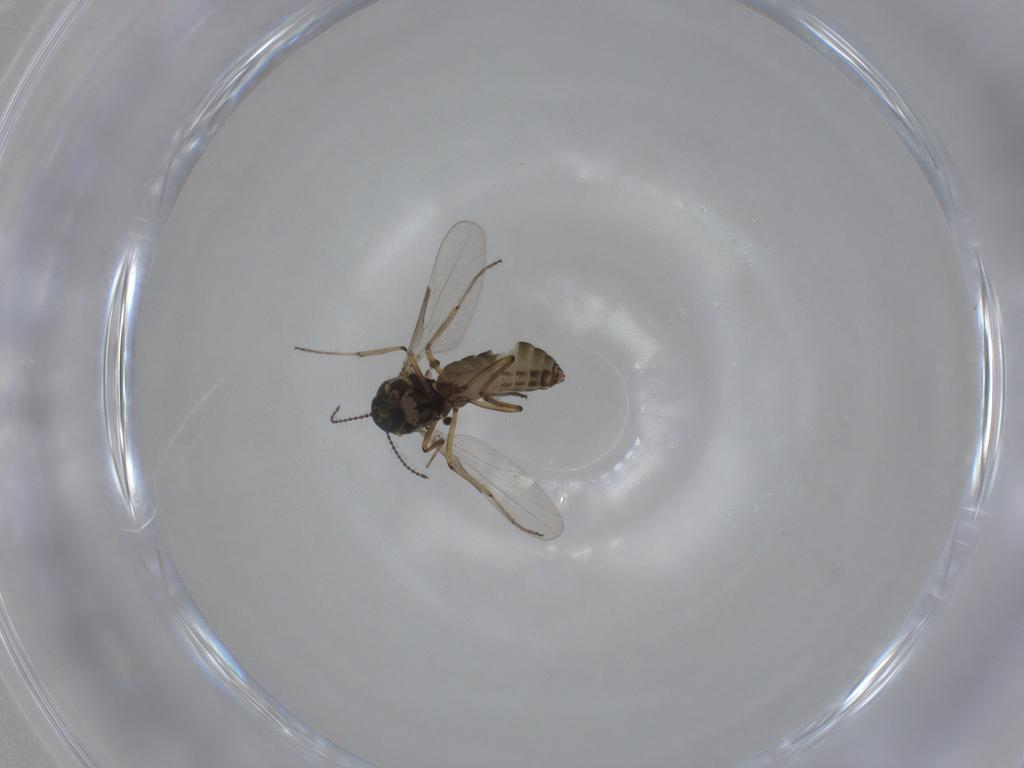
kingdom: Animalia
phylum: Arthropoda
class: Insecta
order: Diptera
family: Ceratopogonidae
